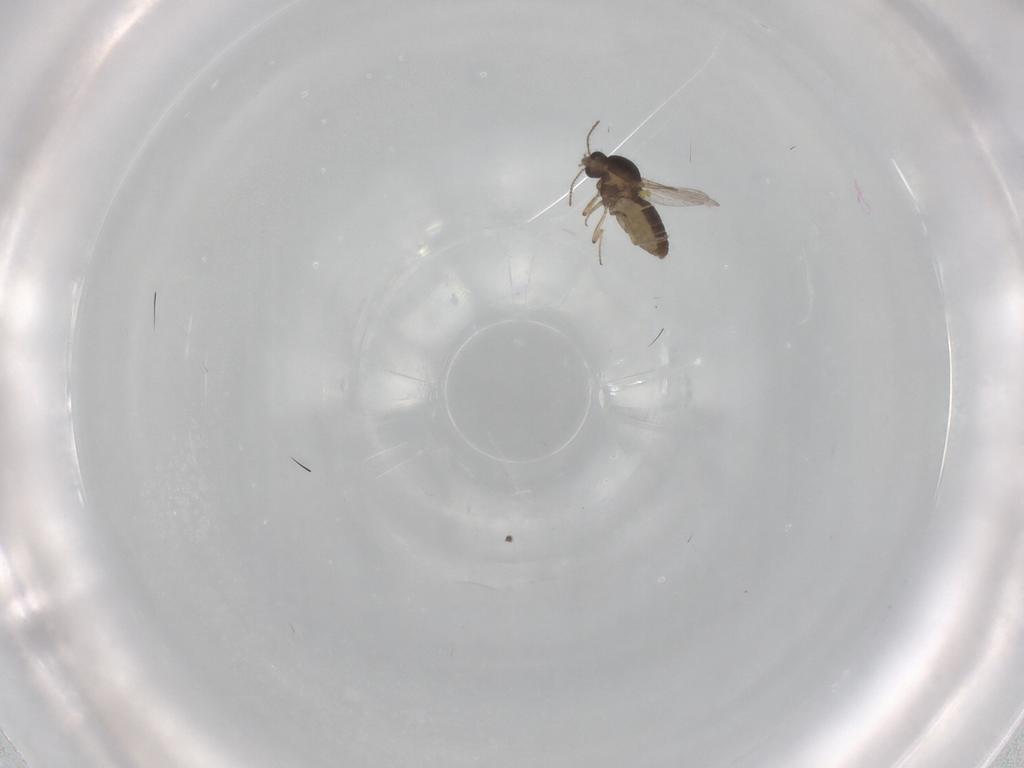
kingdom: Animalia
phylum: Arthropoda
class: Insecta
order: Diptera
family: Ceratopogonidae
